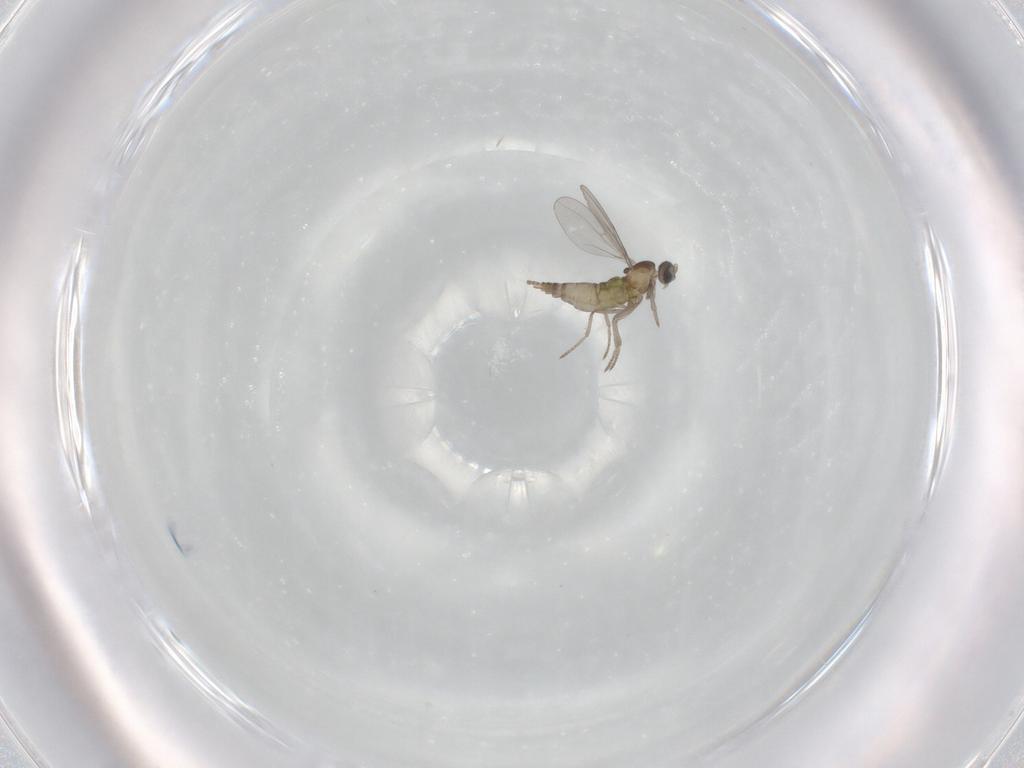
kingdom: Animalia
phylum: Arthropoda
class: Insecta
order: Diptera
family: Cecidomyiidae
